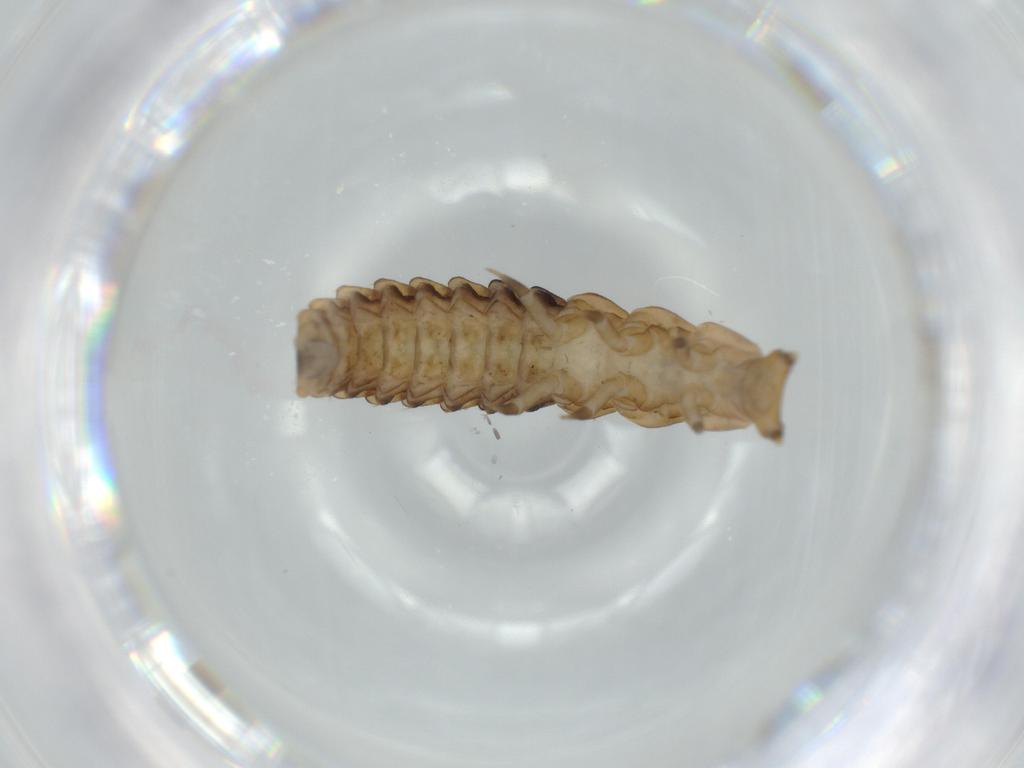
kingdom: Animalia
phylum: Arthropoda
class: Insecta
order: Coleoptera
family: Lycidae
